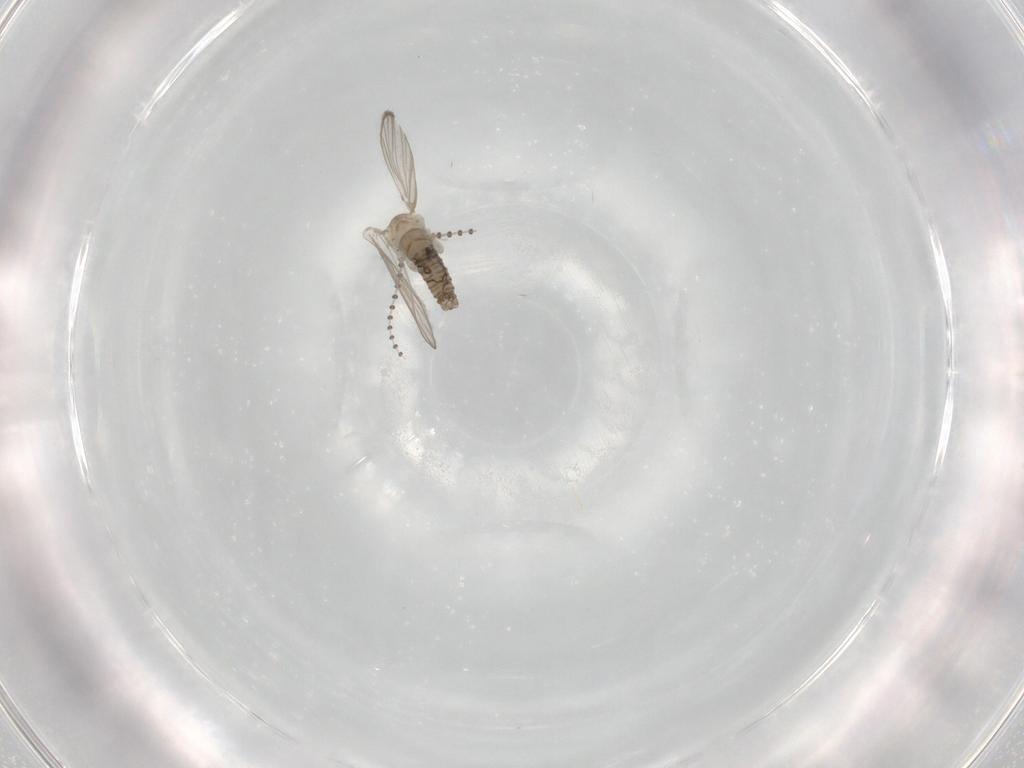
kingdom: Animalia
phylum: Arthropoda
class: Insecta
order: Diptera
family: Psychodidae
